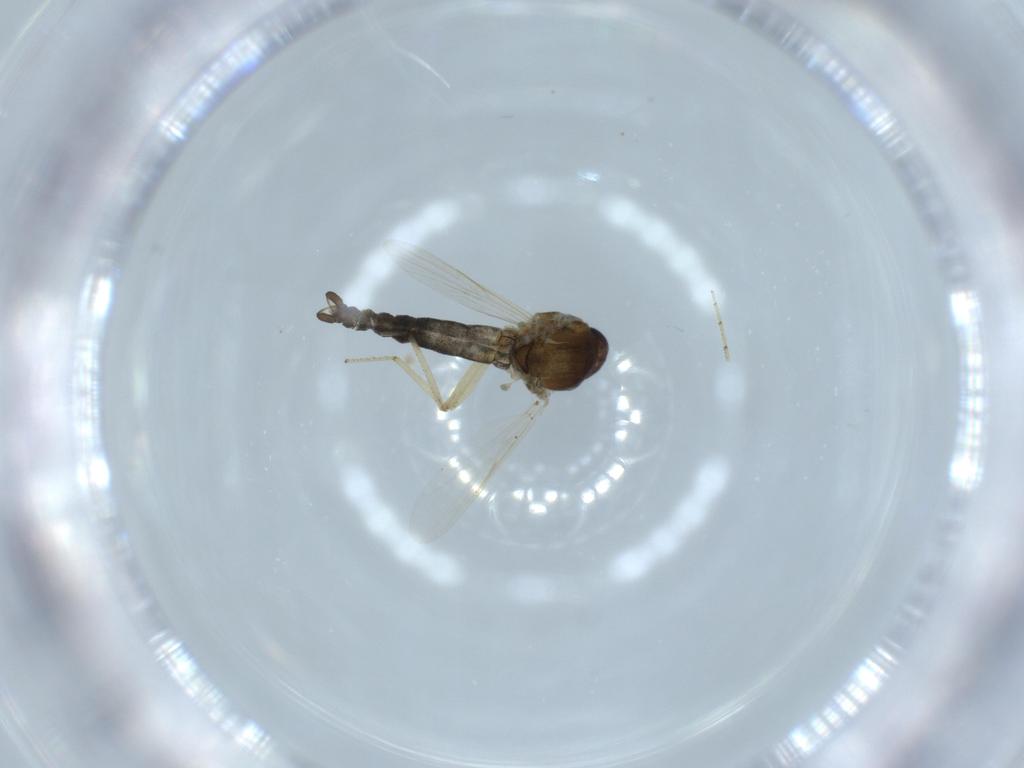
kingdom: Animalia
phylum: Arthropoda
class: Insecta
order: Diptera
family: Ceratopogonidae
